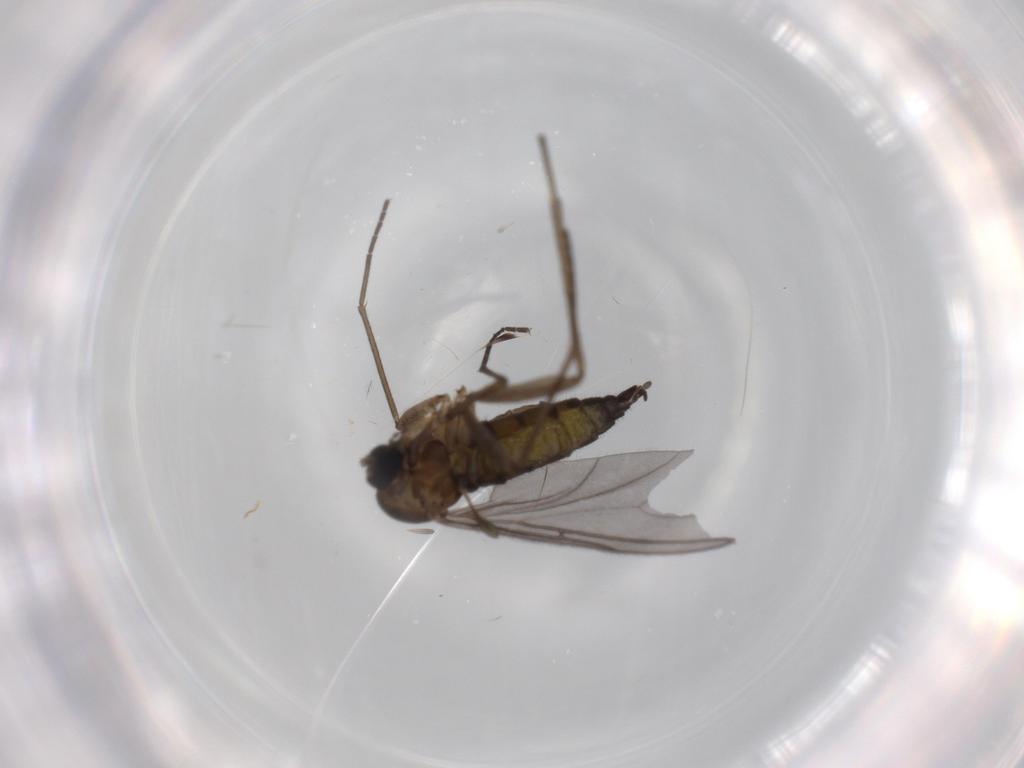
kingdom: Animalia
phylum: Arthropoda
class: Insecta
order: Diptera
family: Sciaridae
